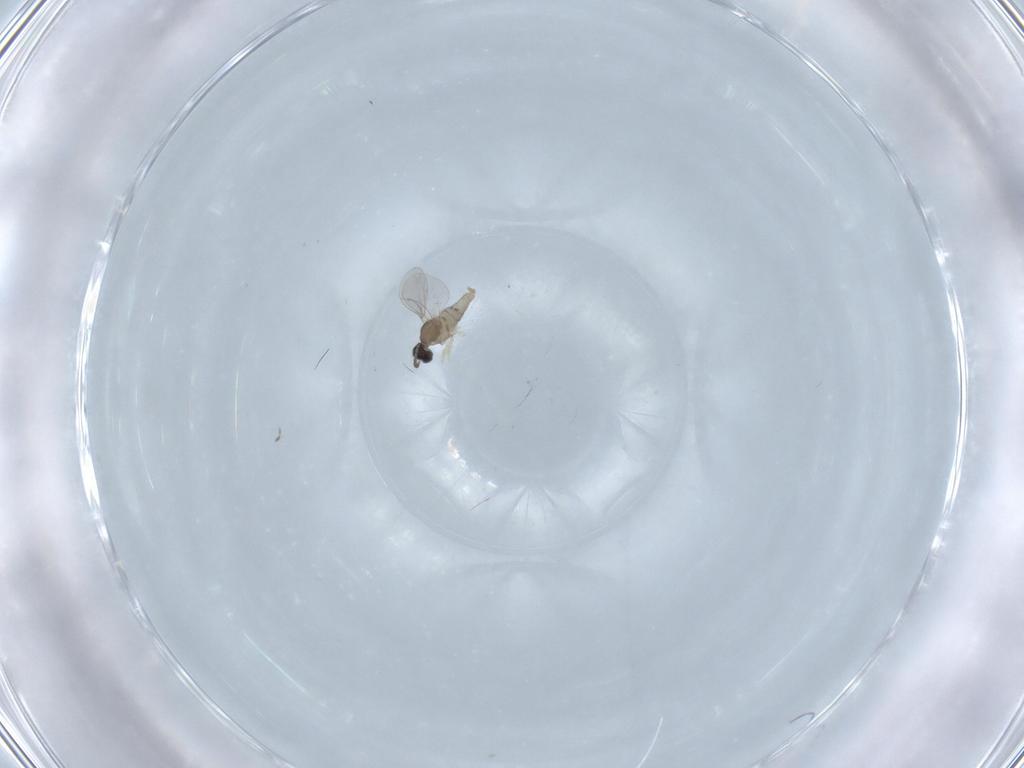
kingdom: Animalia
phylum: Arthropoda
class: Insecta
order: Diptera
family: Cecidomyiidae
